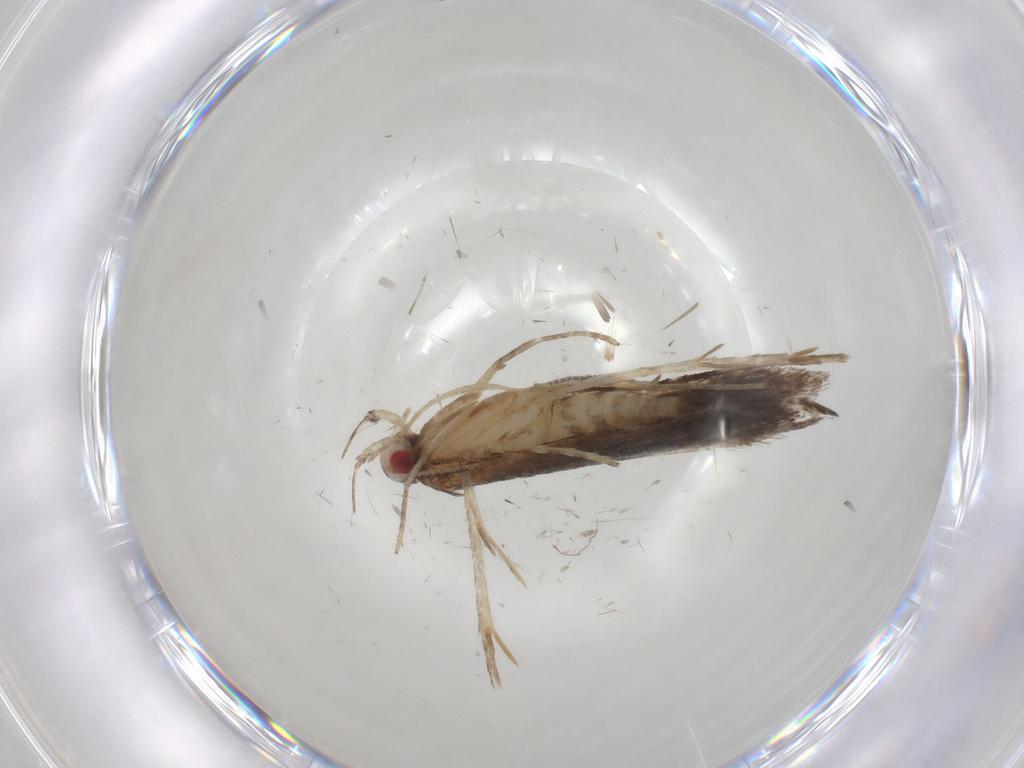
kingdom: Animalia
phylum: Arthropoda
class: Insecta
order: Lepidoptera
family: Gelechiidae
